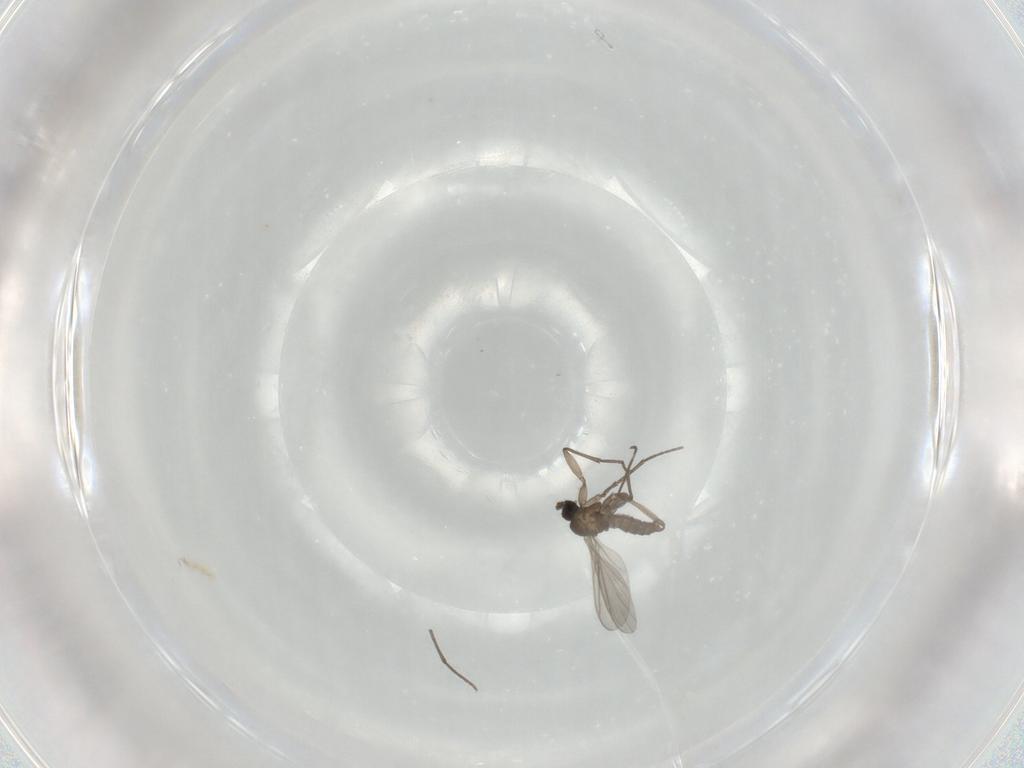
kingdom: Animalia
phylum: Arthropoda
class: Insecta
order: Diptera
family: Sciaridae
